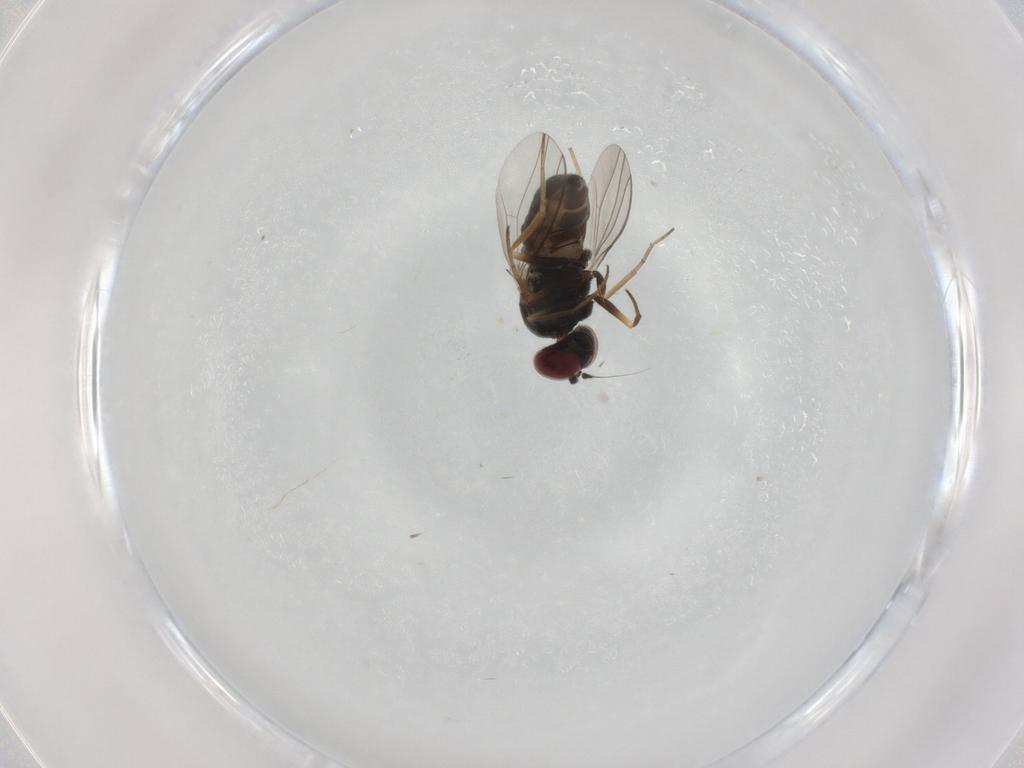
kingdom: Animalia
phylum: Arthropoda
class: Insecta
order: Diptera
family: Dolichopodidae
